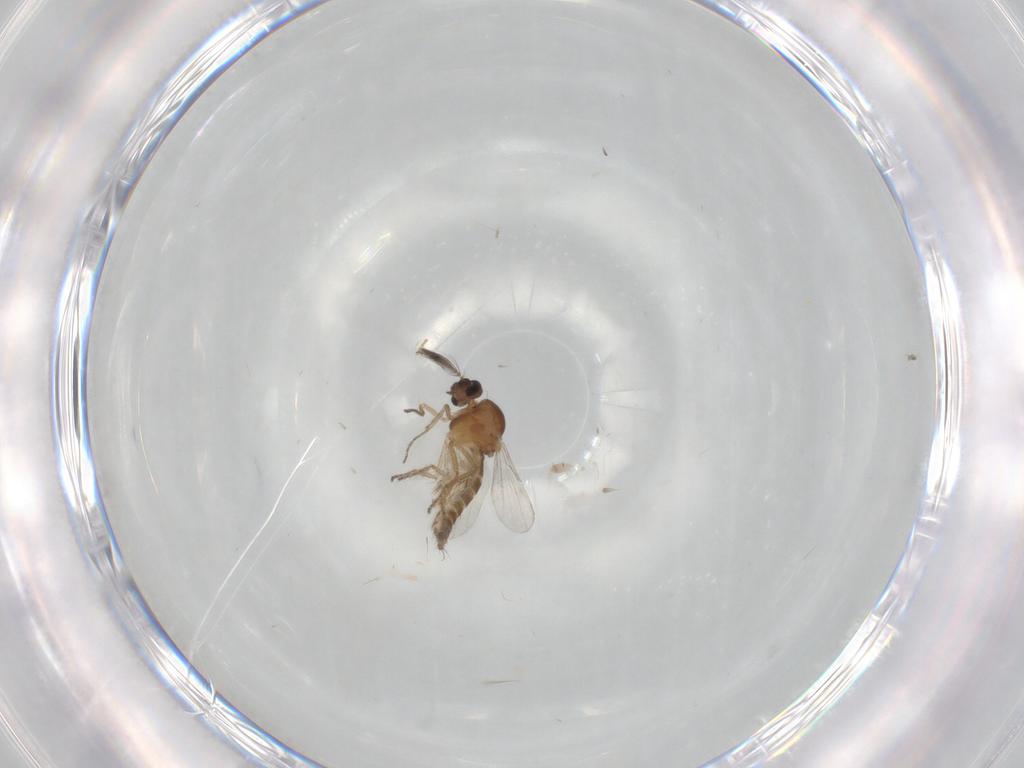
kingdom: Animalia
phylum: Arthropoda
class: Insecta
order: Diptera
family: Ceratopogonidae
